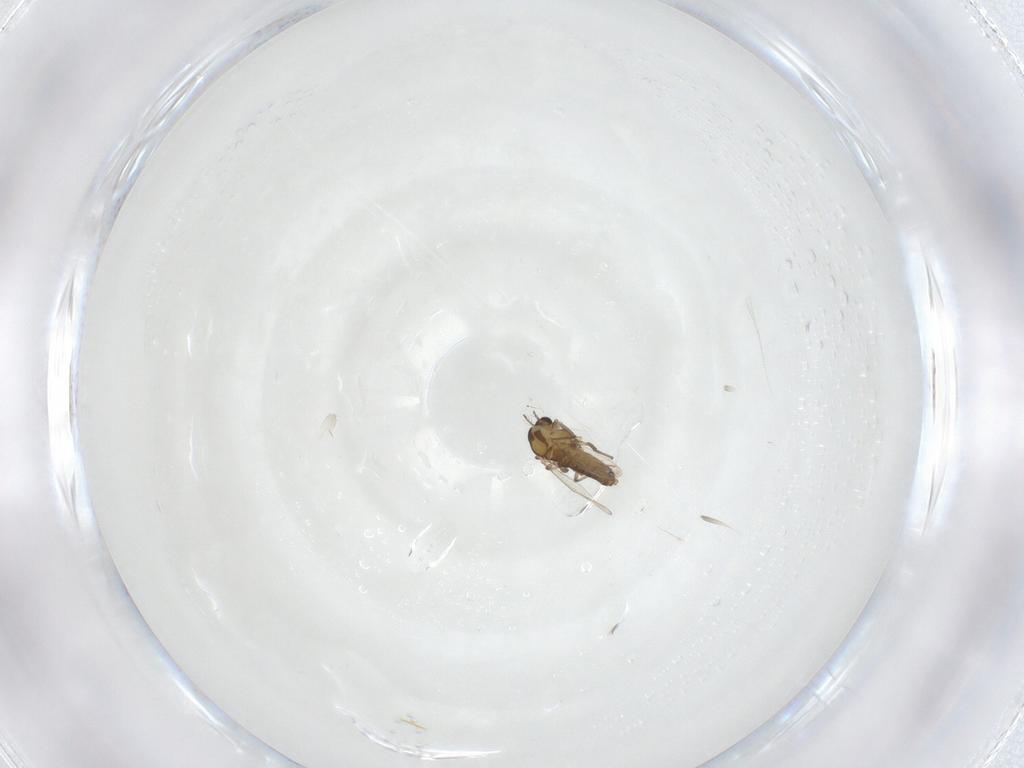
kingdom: Animalia
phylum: Arthropoda
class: Insecta
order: Diptera
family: Chironomidae
